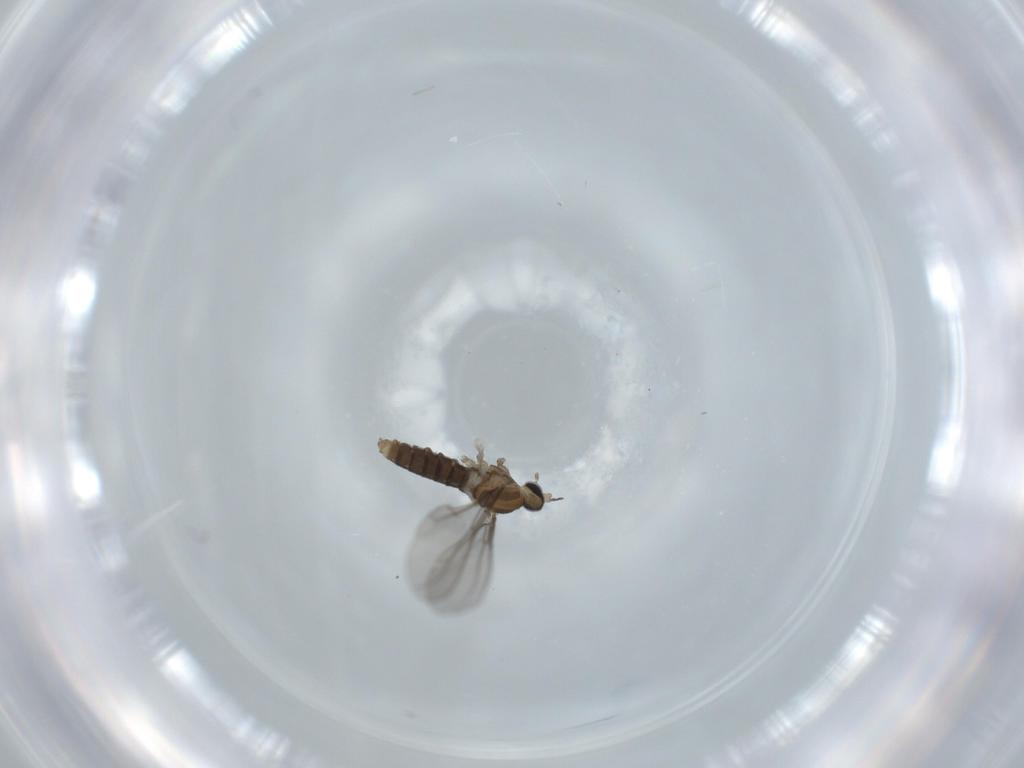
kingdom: Animalia
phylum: Arthropoda
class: Insecta
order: Diptera
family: Cecidomyiidae
